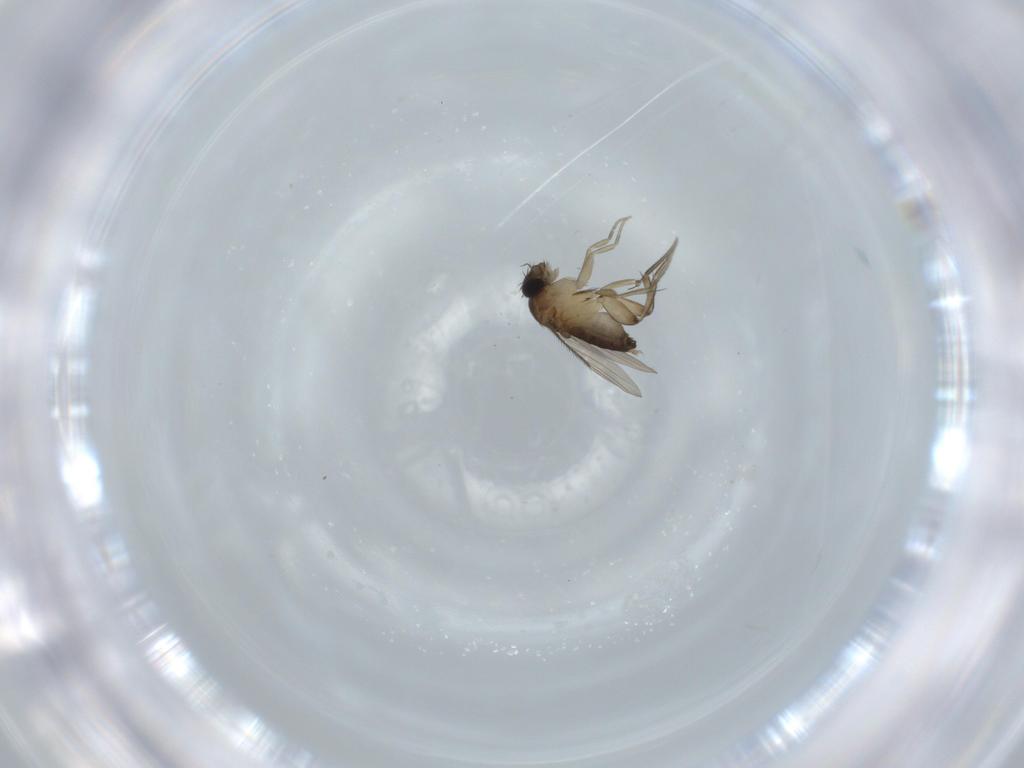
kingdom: Animalia
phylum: Arthropoda
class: Insecta
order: Diptera
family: Phoridae
